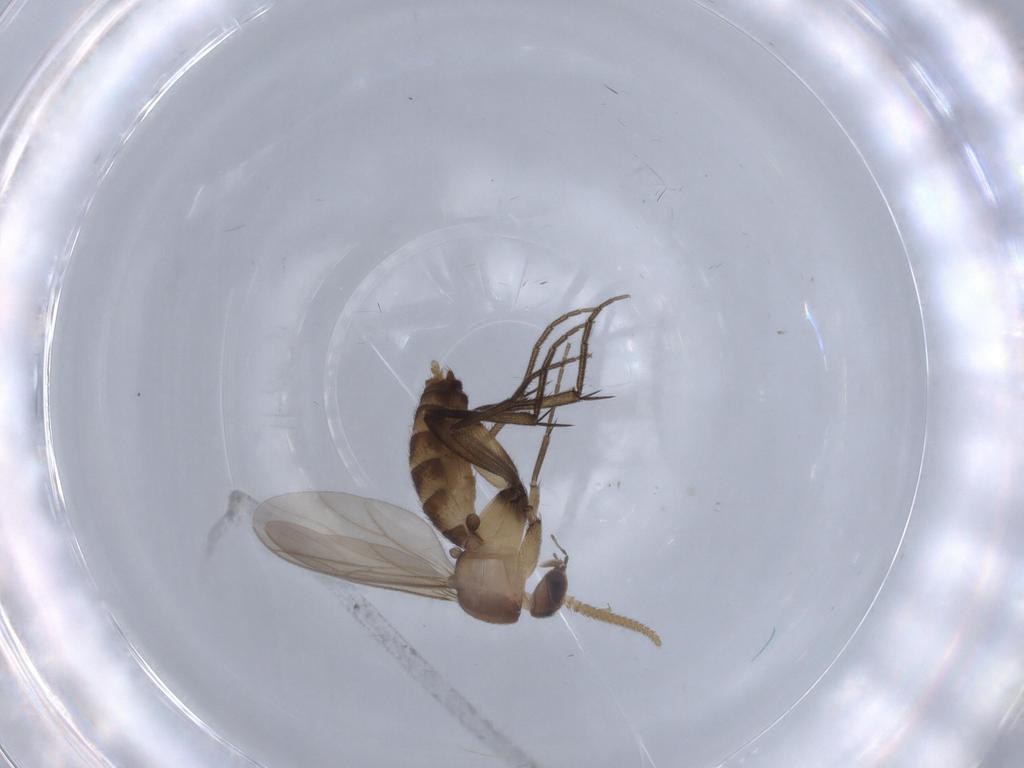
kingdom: Animalia
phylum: Arthropoda
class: Insecta
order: Diptera
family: Mycetophilidae
